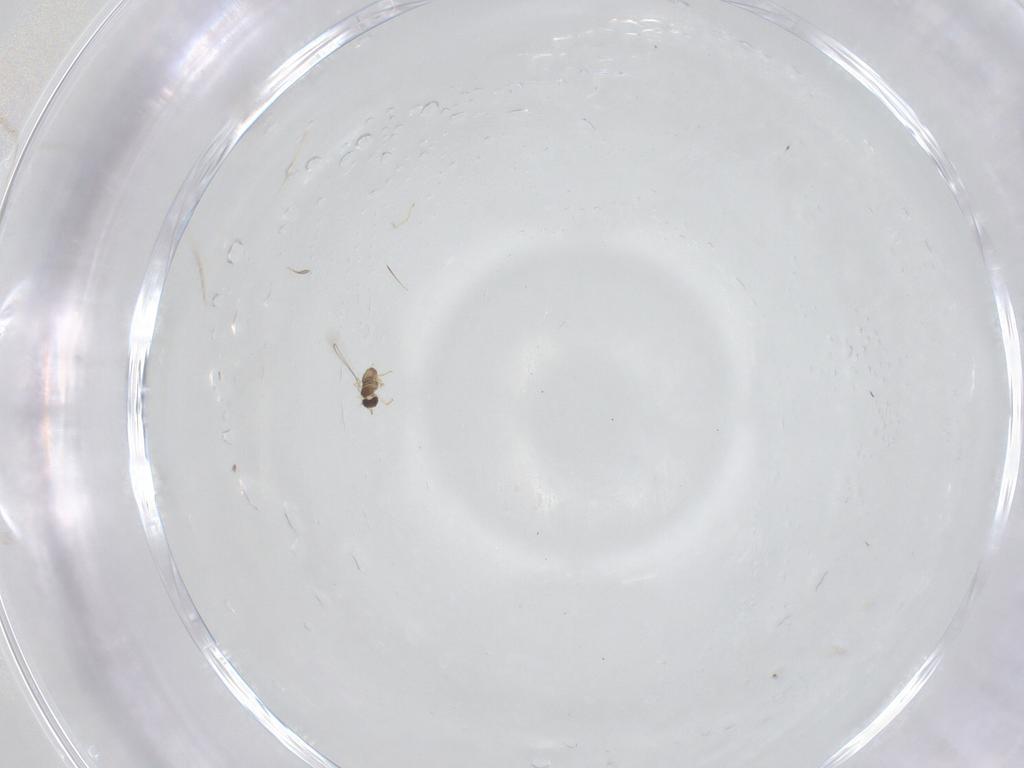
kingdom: Animalia
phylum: Arthropoda
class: Insecta
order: Hymenoptera
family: Mymaridae
